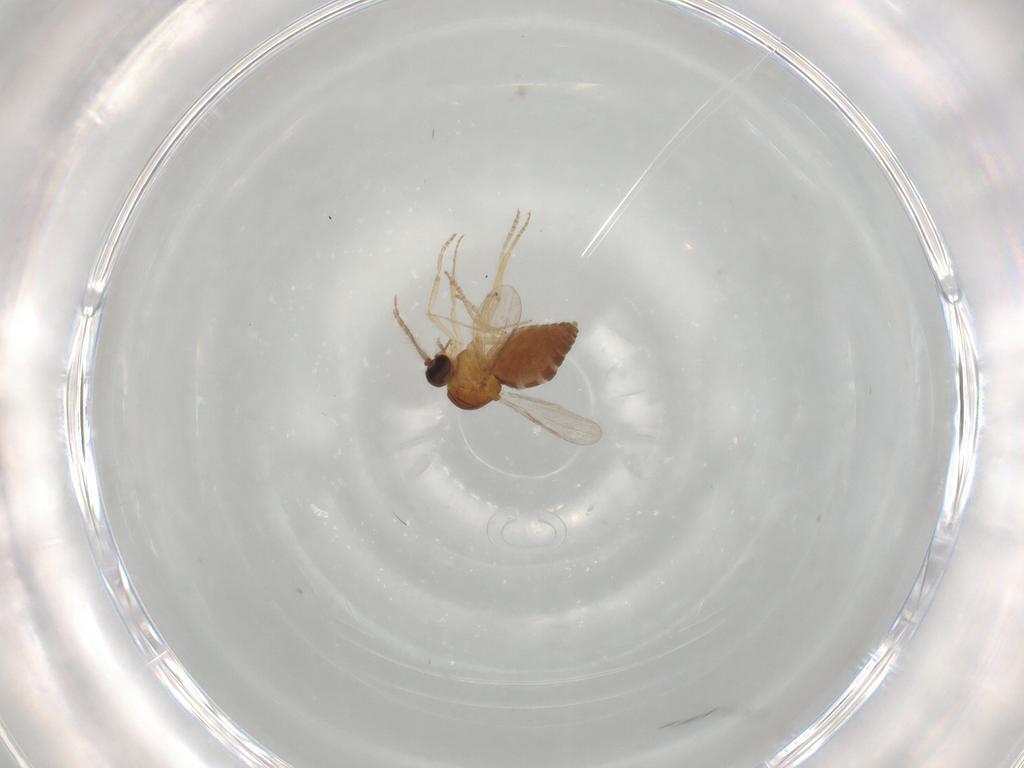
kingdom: Animalia
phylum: Arthropoda
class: Insecta
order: Diptera
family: Ceratopogonidae
